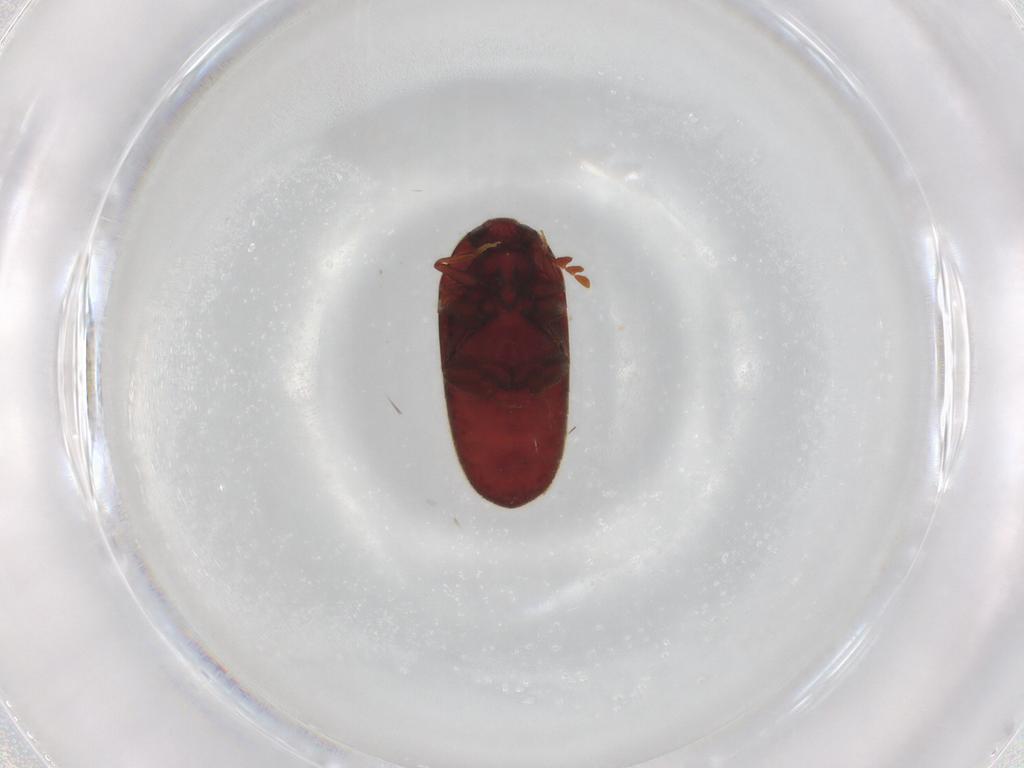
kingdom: Animalia
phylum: Arthropoda
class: Insecta
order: Coleoptera
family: Throscidae
